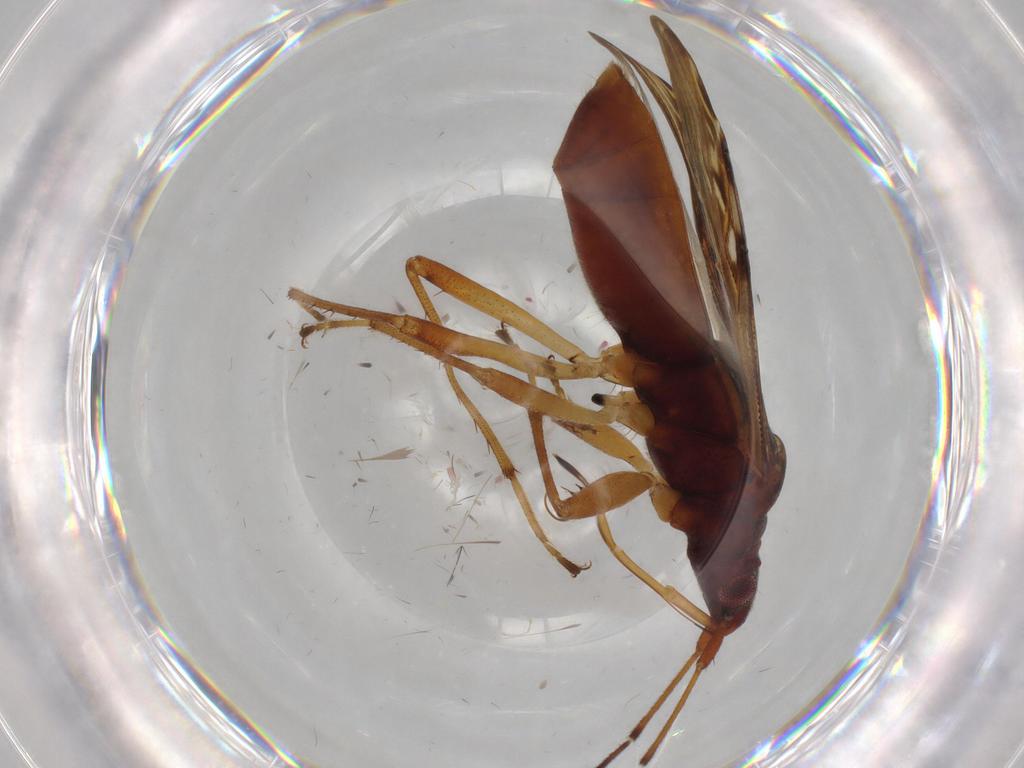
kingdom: Animalia
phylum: Arthropoda
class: Insecta
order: Hemiptera
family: Rhyparochromidae
